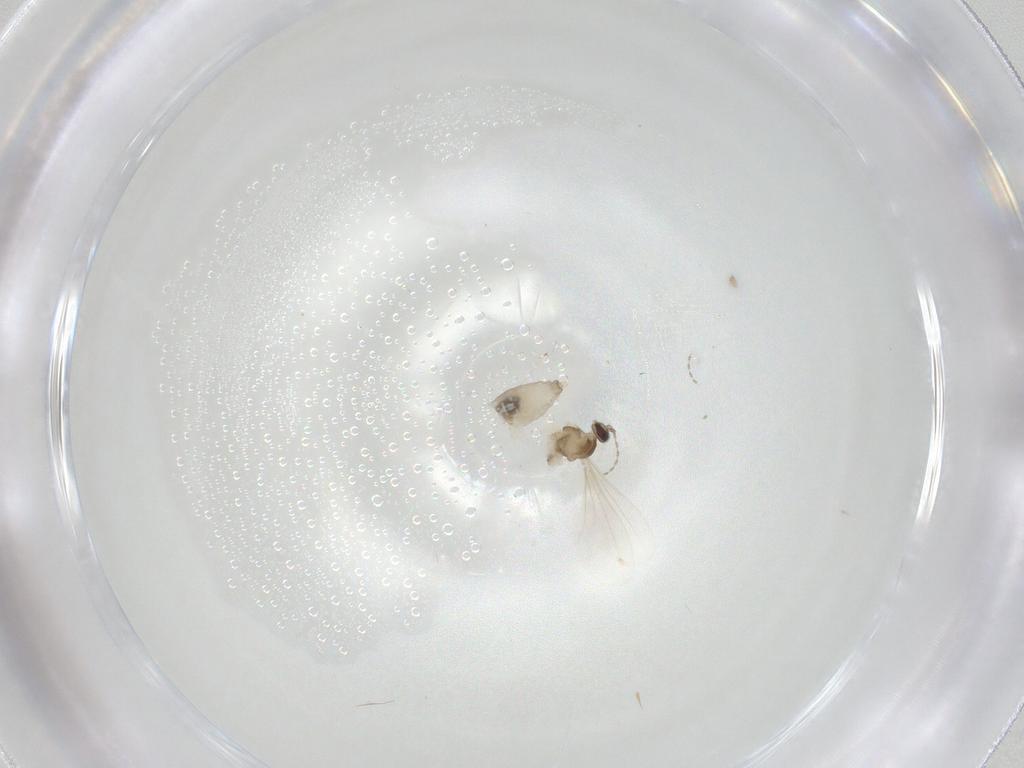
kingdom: Animalia
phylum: Arthropoda
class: Insecta
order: Diptera
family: Cecidomyiidae
